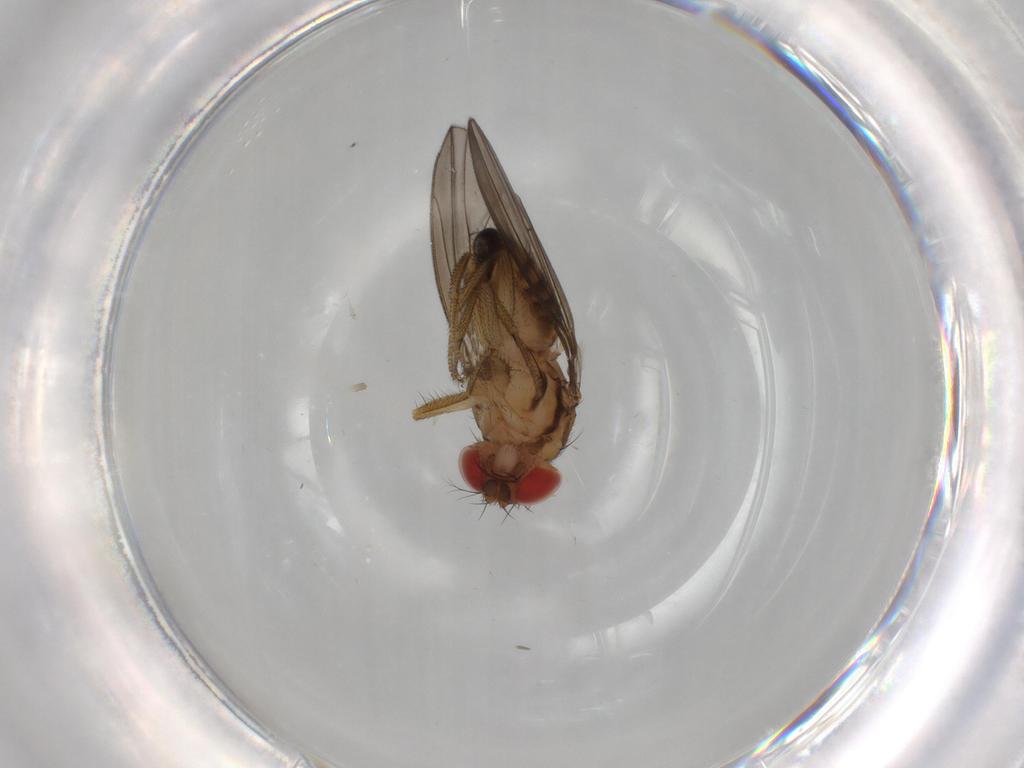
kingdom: Animalia
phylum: Arthropoda
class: Insecta
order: Diptera
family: Drosophilidae
